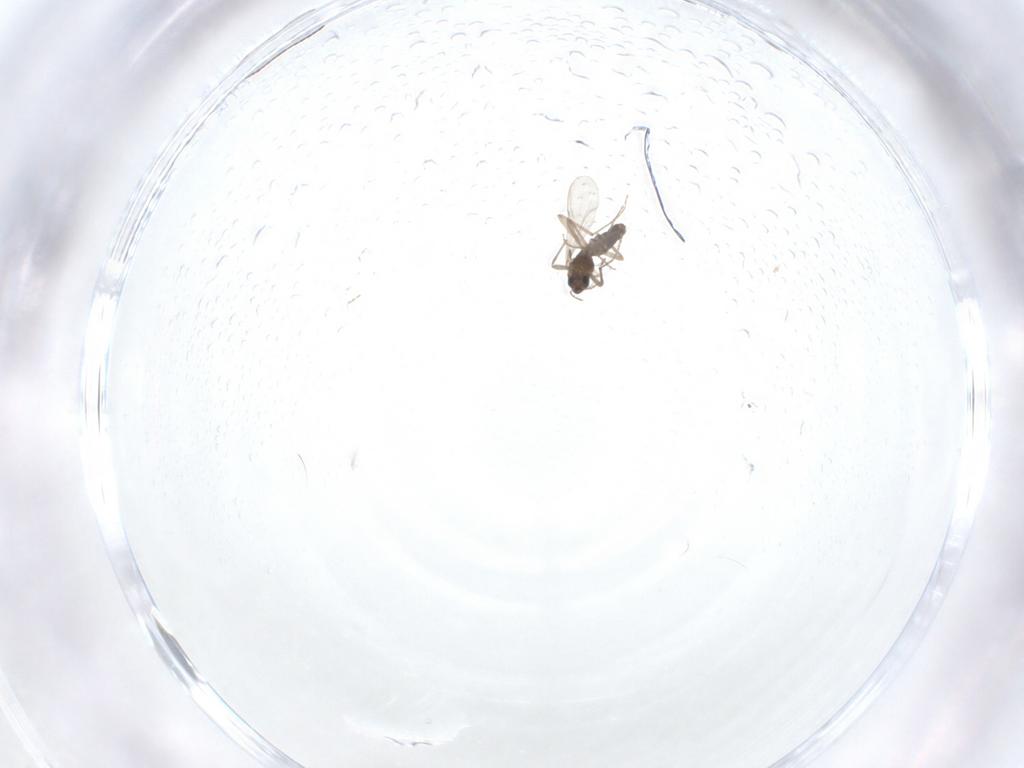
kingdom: Animalia
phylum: Arthropoda
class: Insecta
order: Diptera
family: Chironomidae
